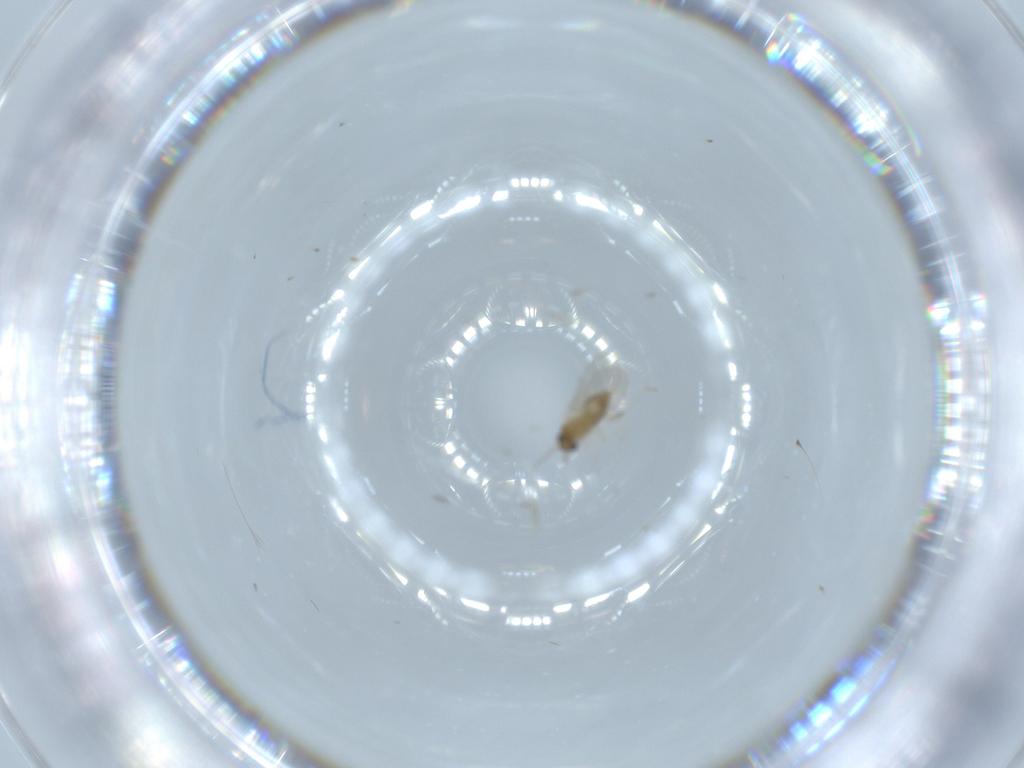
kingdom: Animalia
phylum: Arthropoda
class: Insecta
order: Diptera
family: Cecidomyiidae
